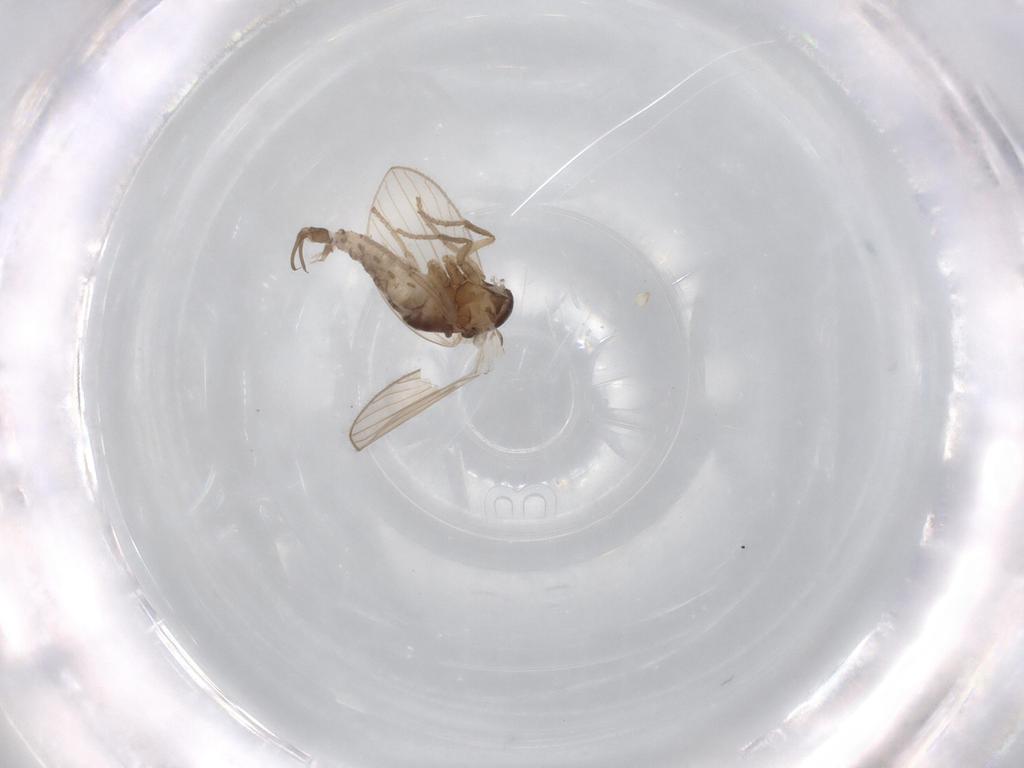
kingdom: Animalia
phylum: Arthropoda
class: Insecta
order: Diptera
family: Psychodidae
